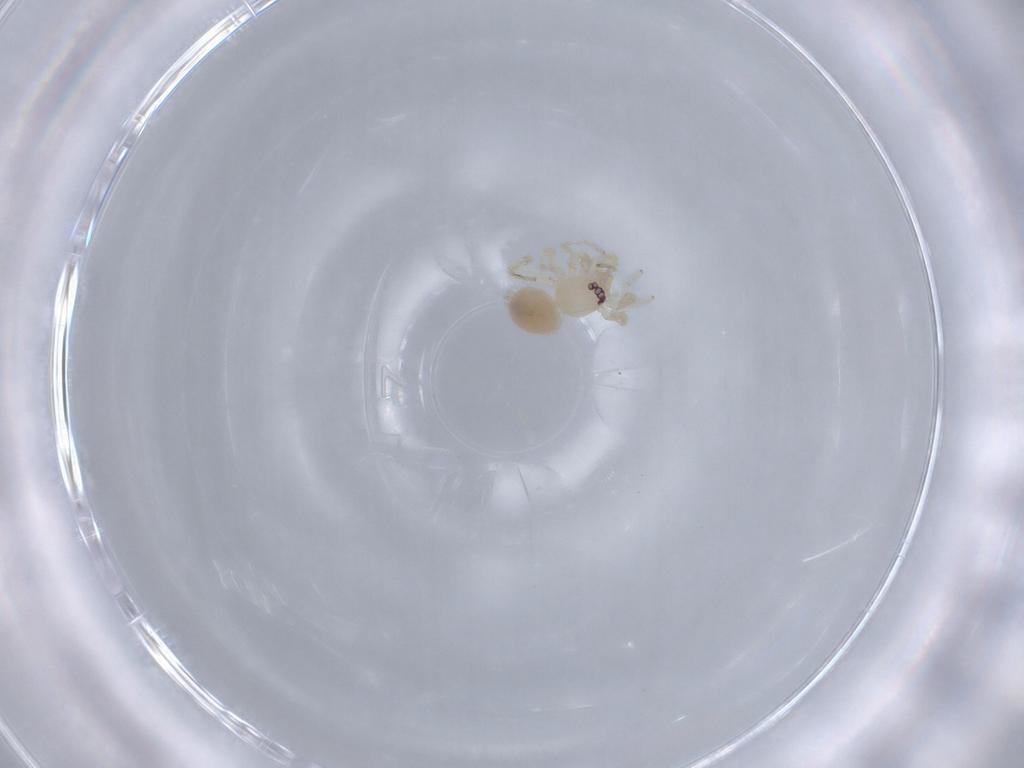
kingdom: Animalia
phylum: Arthropoda
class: Arachnida
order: Araneae
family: Oonopidae
